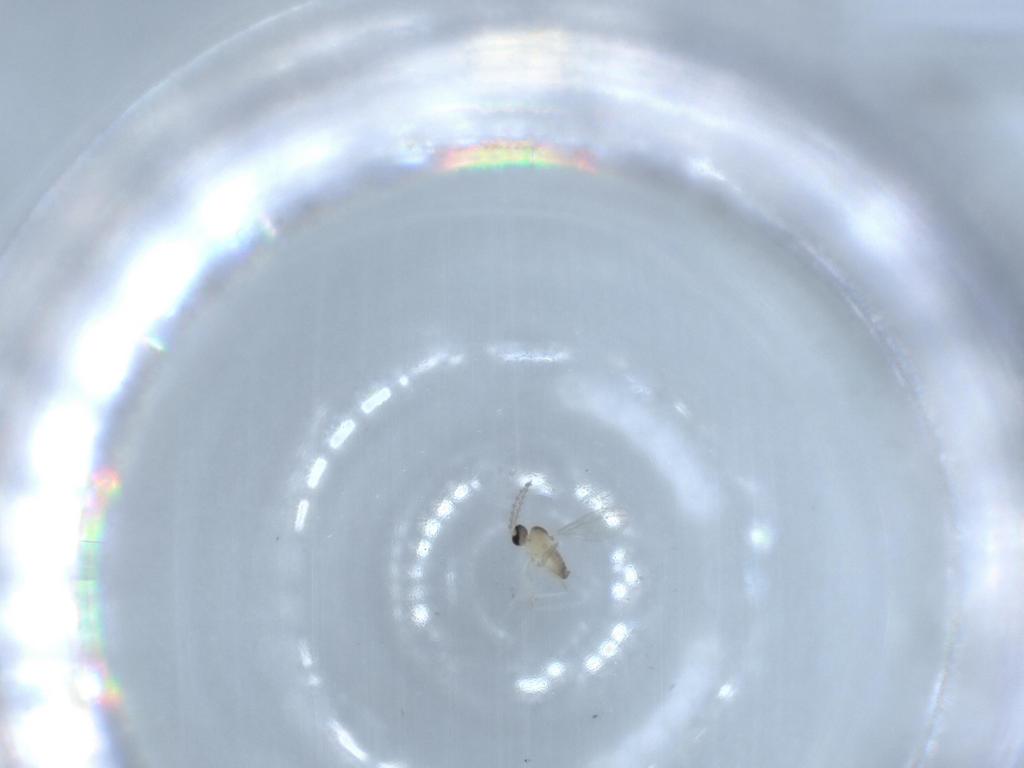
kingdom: Animalia
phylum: Arthropoda
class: Insecta
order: Diptera
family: Cecidomyiidae
